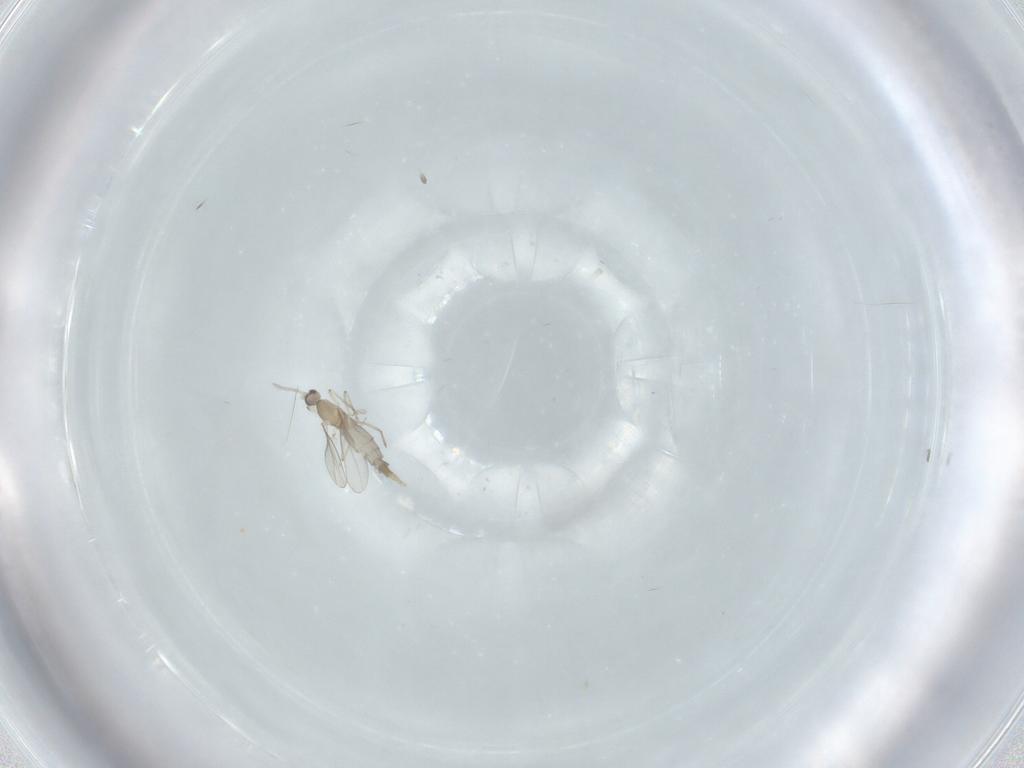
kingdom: Animalia
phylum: Arthropoda
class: Insecta
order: Diptera
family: Cecidomyiidae
